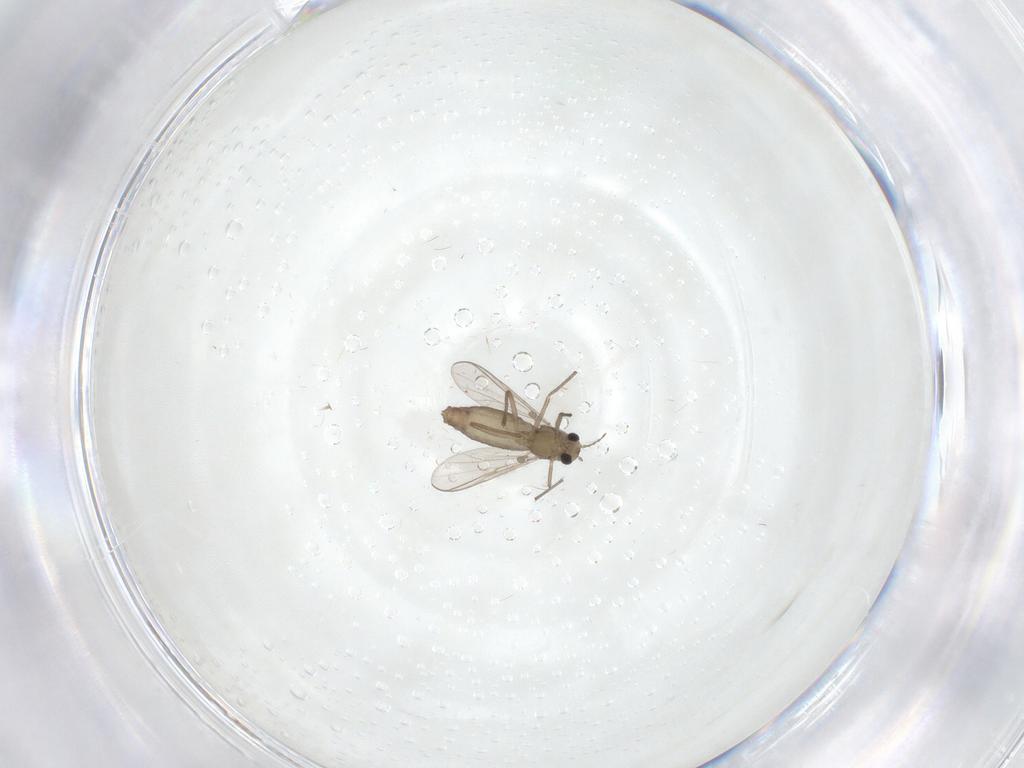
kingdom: Animalia
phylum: Arthropoda
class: Insecta
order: Diptera
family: Chironomidae
